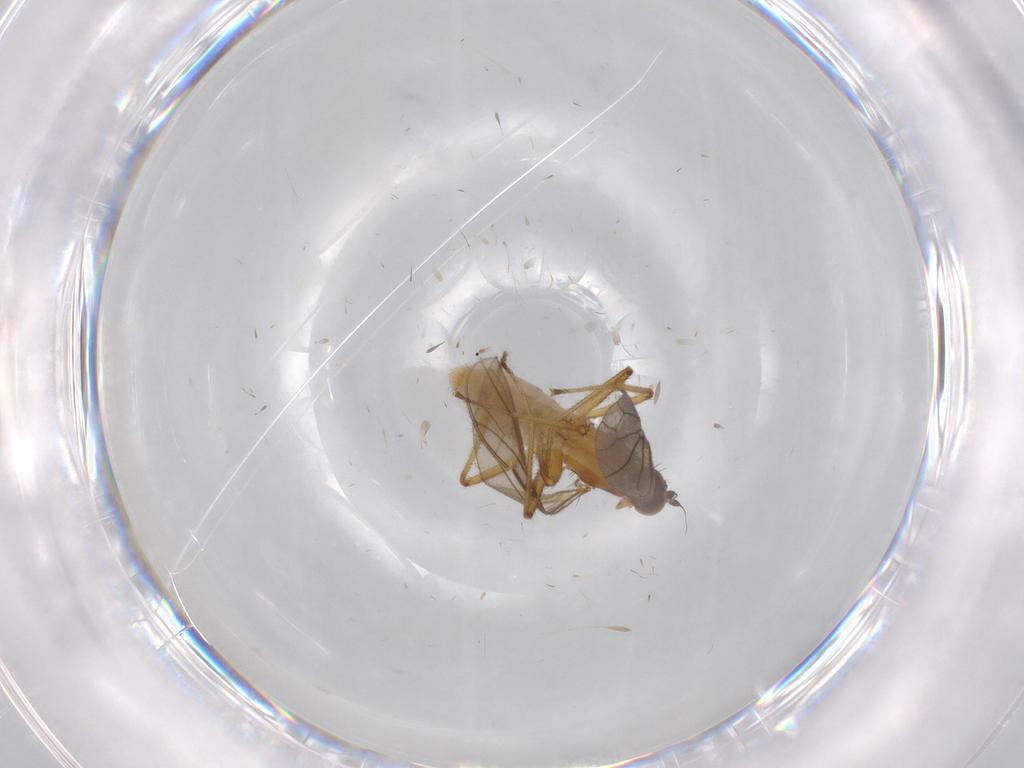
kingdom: Animalia
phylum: Arthropoda
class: Insecta
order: Diptera
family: Empididae
